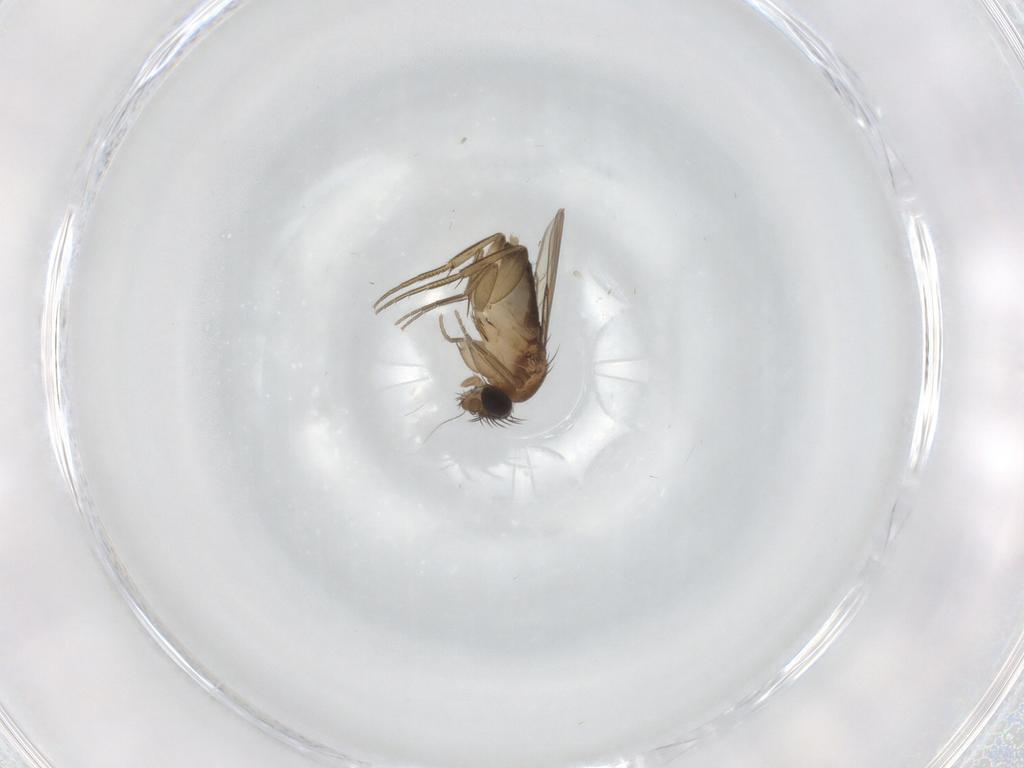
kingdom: Animalia
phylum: Arthropoda
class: Insecta
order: Diptera
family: Phoridae
